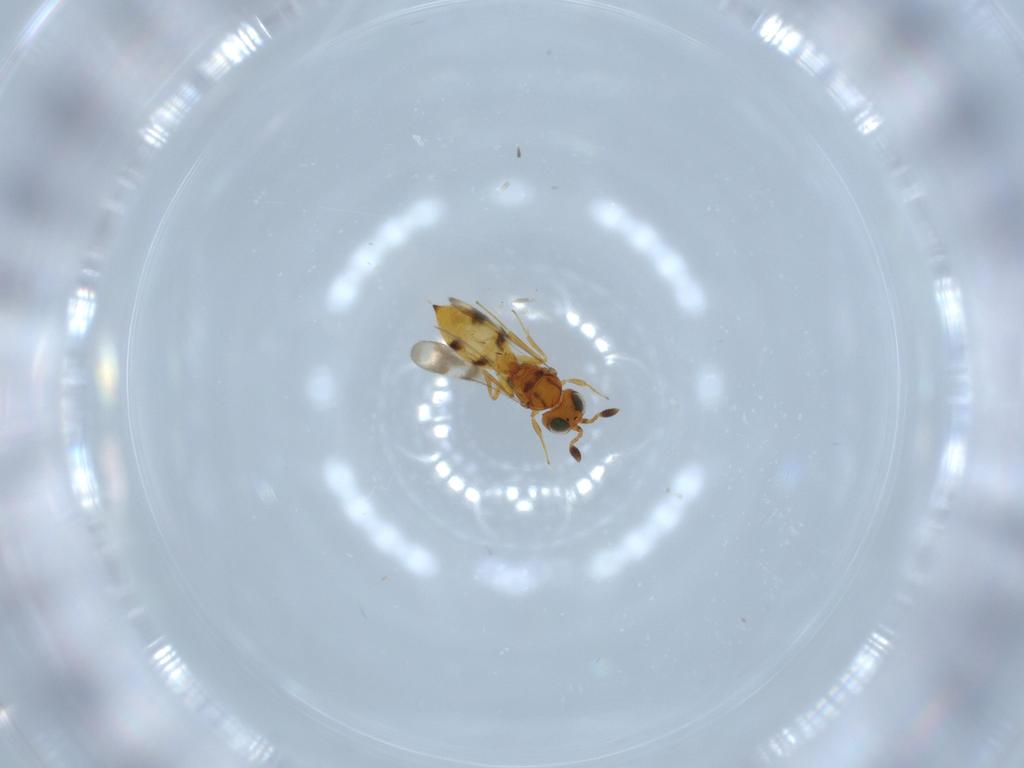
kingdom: Animalia
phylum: Arthropoda
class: Insecta
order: Hymenoptera
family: Scelionidae
